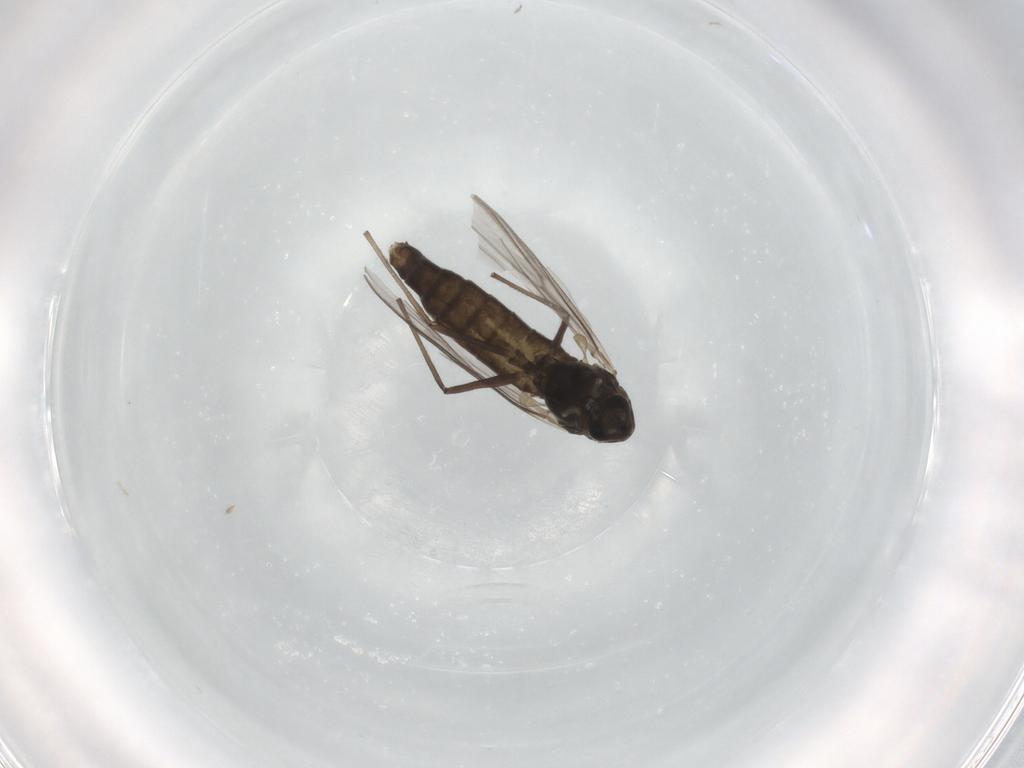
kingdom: Animalia
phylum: Arthropoda
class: Insecta
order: Diptera
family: Chironomidae
